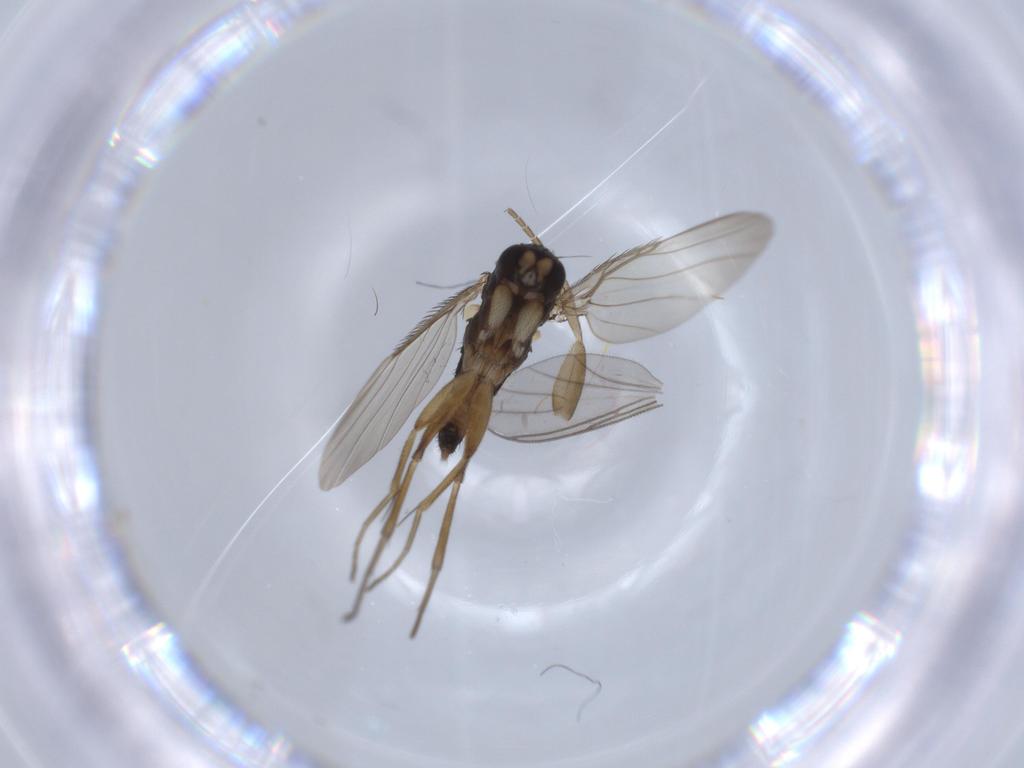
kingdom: Animalia
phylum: Arthropoda
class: Insecta
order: Diptera
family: Phoridae
